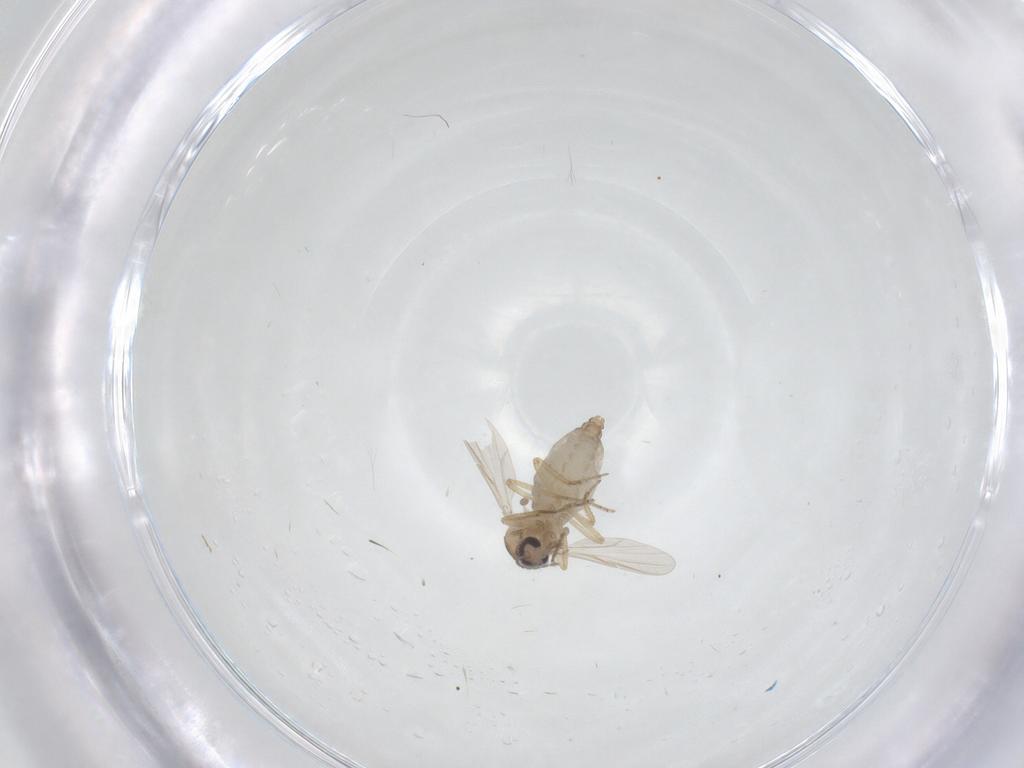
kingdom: Animalia
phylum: Arthropoda
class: Insecta
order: Diptera
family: Ceratopogonidae
